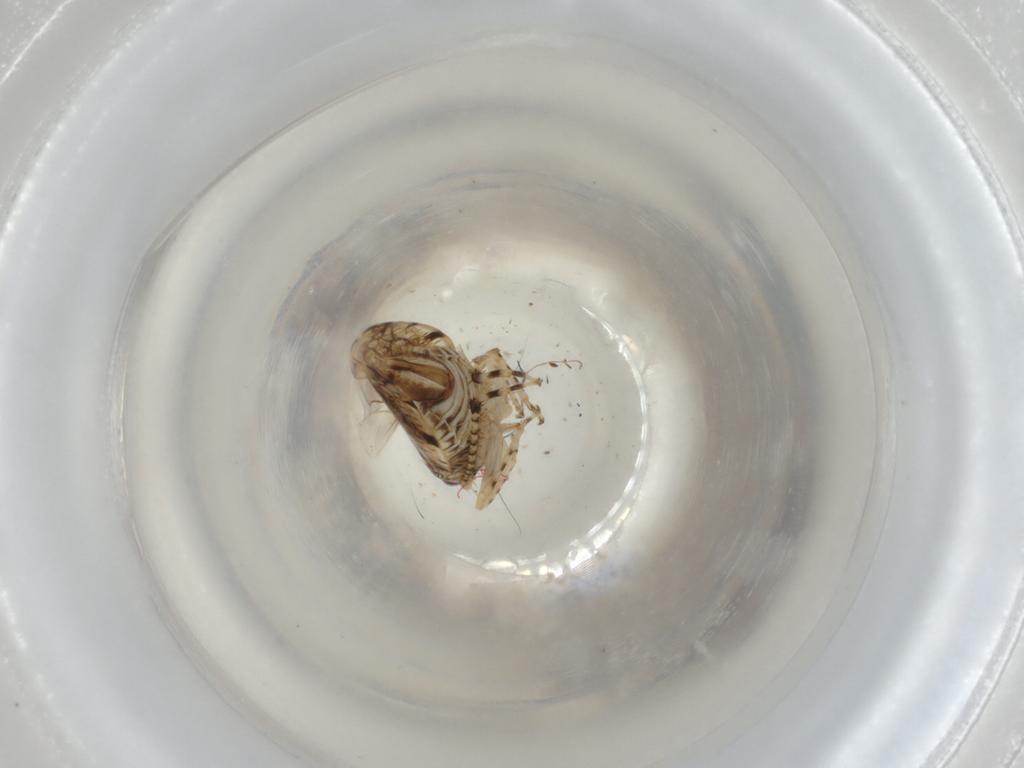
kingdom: Animalia
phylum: Arthropoda
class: Insecta
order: Hemiptera
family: Cicadellidae
